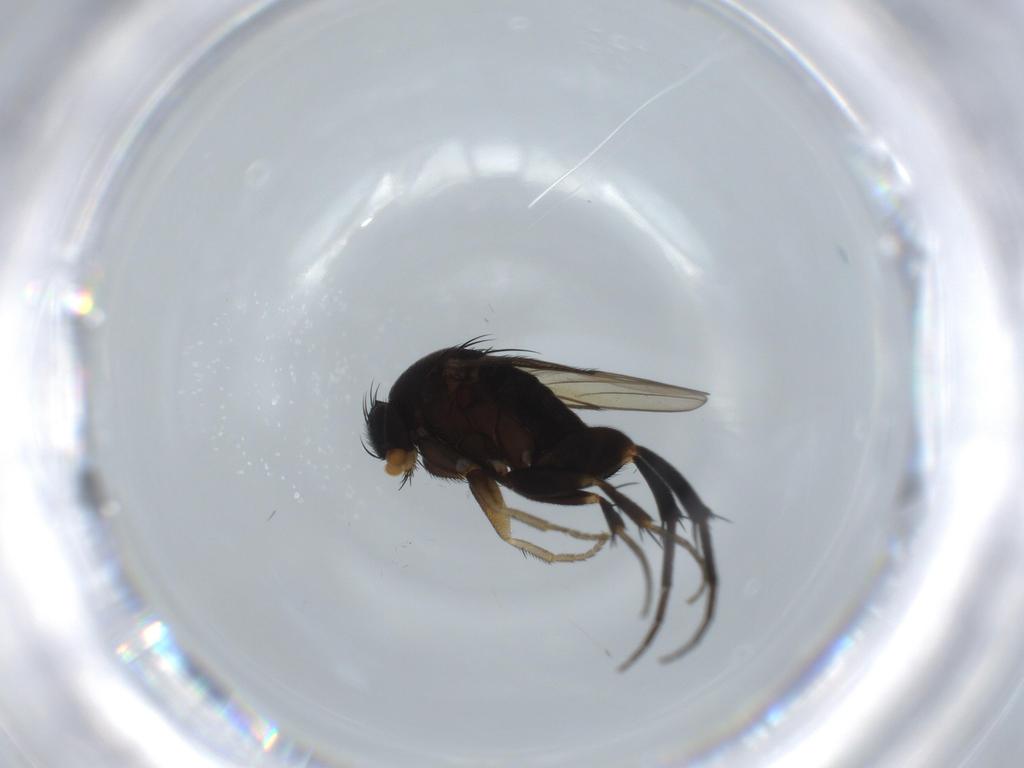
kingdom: Animalia
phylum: Arthropoda
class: Insecta
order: Diptera
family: Phoridae
